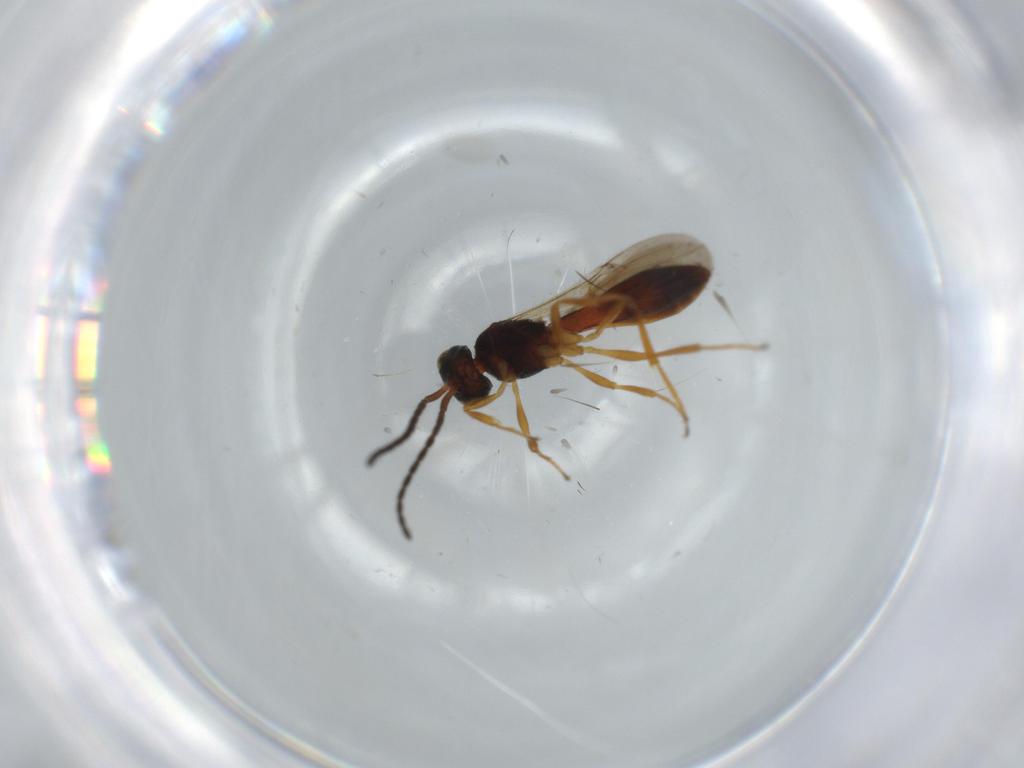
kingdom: Animalia
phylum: Arthropoda
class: Insecta
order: Hymenoptera
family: Scelionidae
